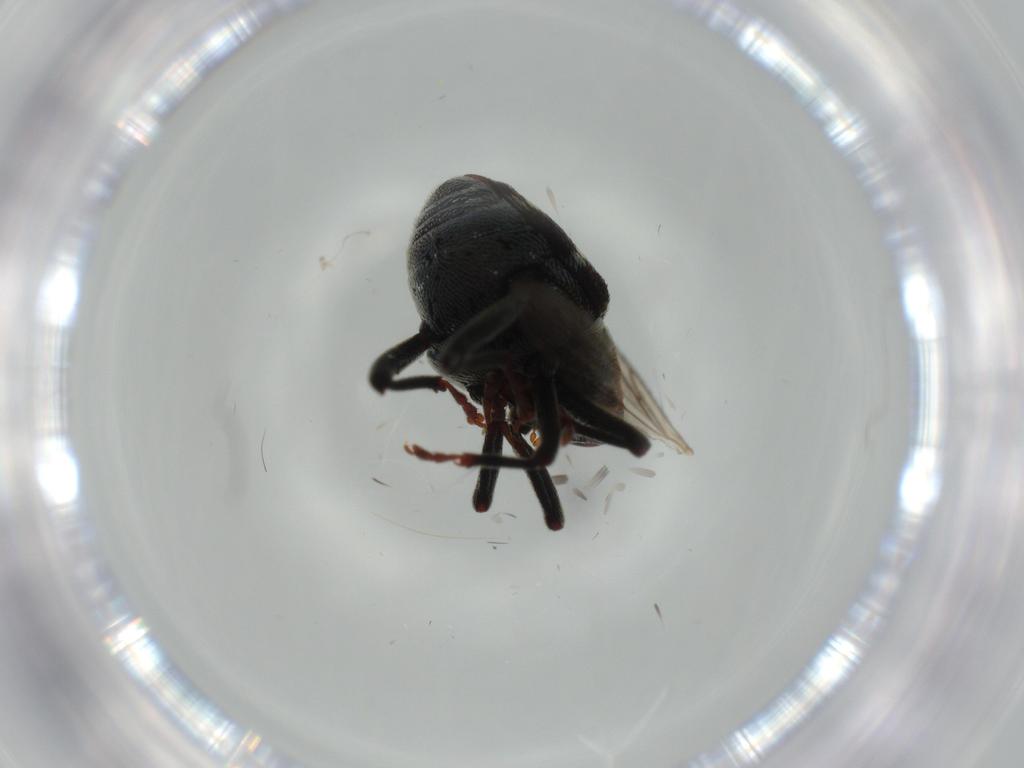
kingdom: Animalia
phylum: Arthropoda
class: Insecta
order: Coleoptera
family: Curculionidae
